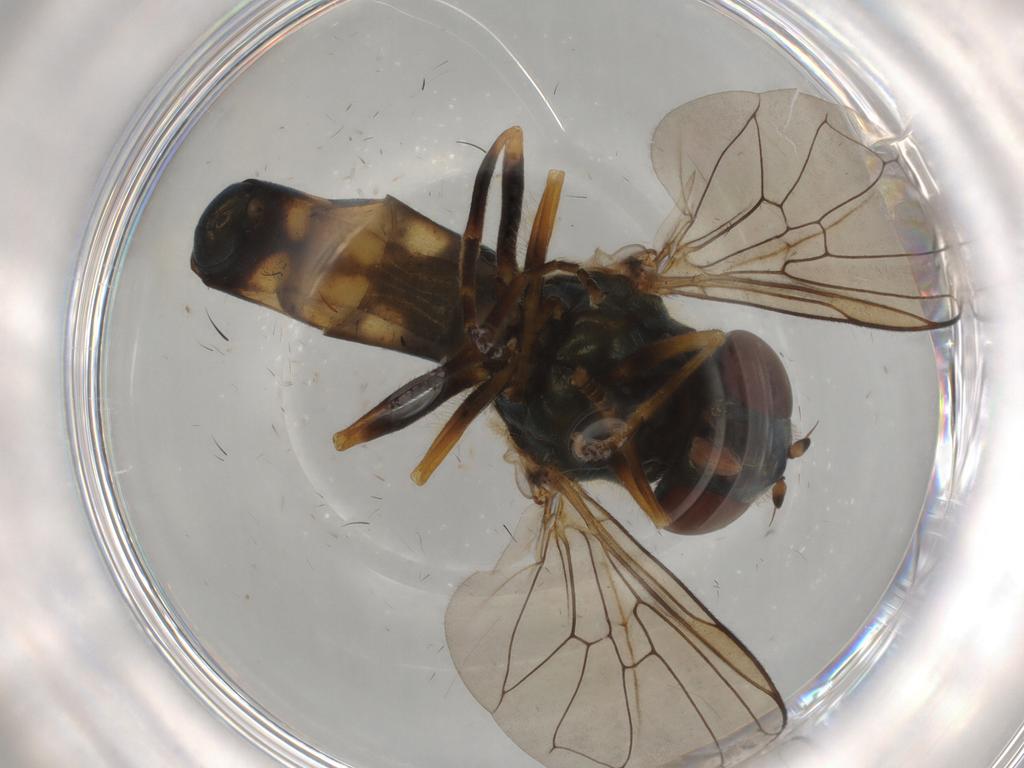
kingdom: Animalia
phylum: Arthropoda
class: Insecta
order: Diptera
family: Syrphidae
